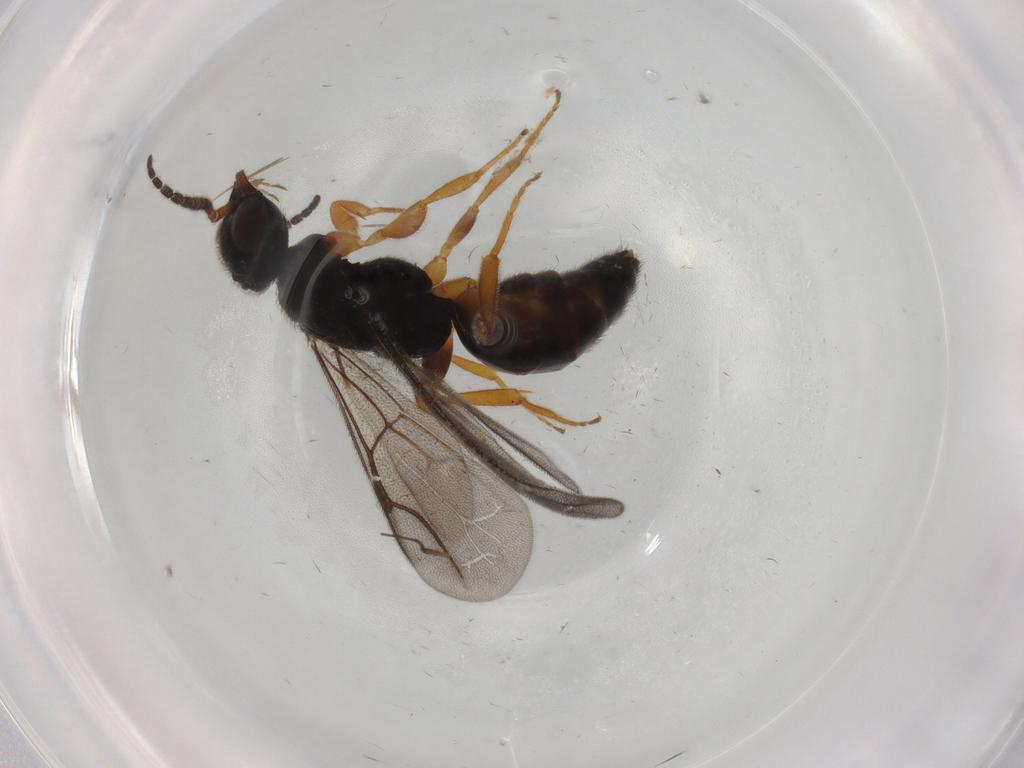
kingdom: Animalia
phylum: Arthropoda
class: Insecta
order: Hymenoptera
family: Bethylidae
